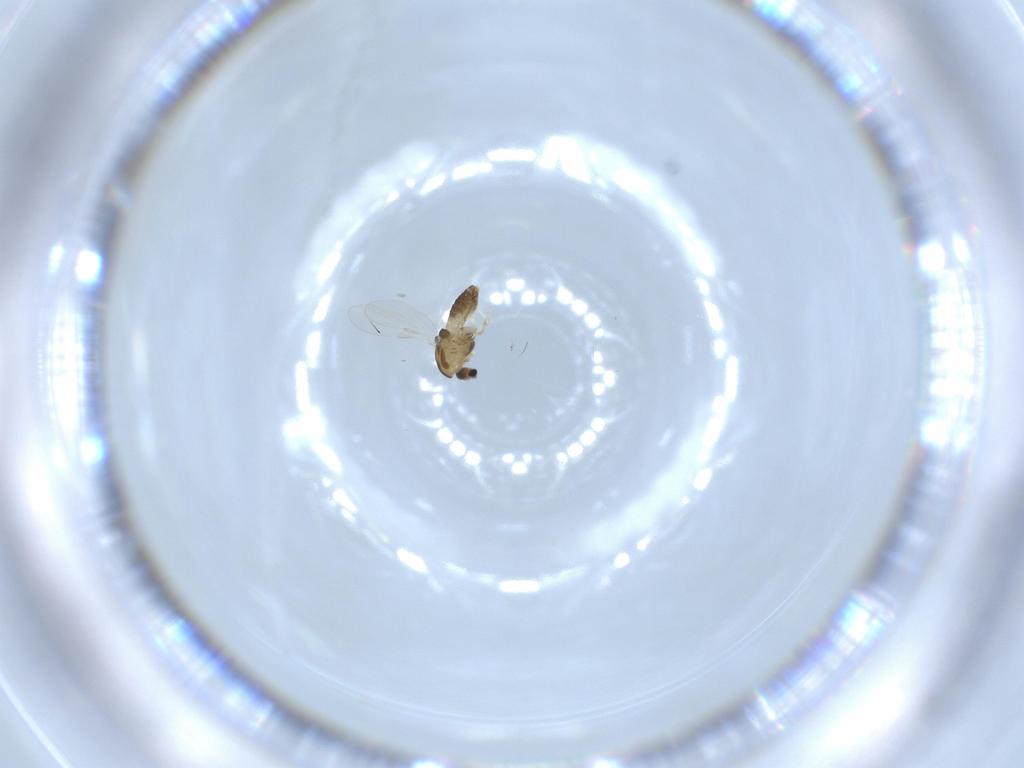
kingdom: Animalia
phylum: Arthropoda
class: Insecta
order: Diptera
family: Chironomidae
